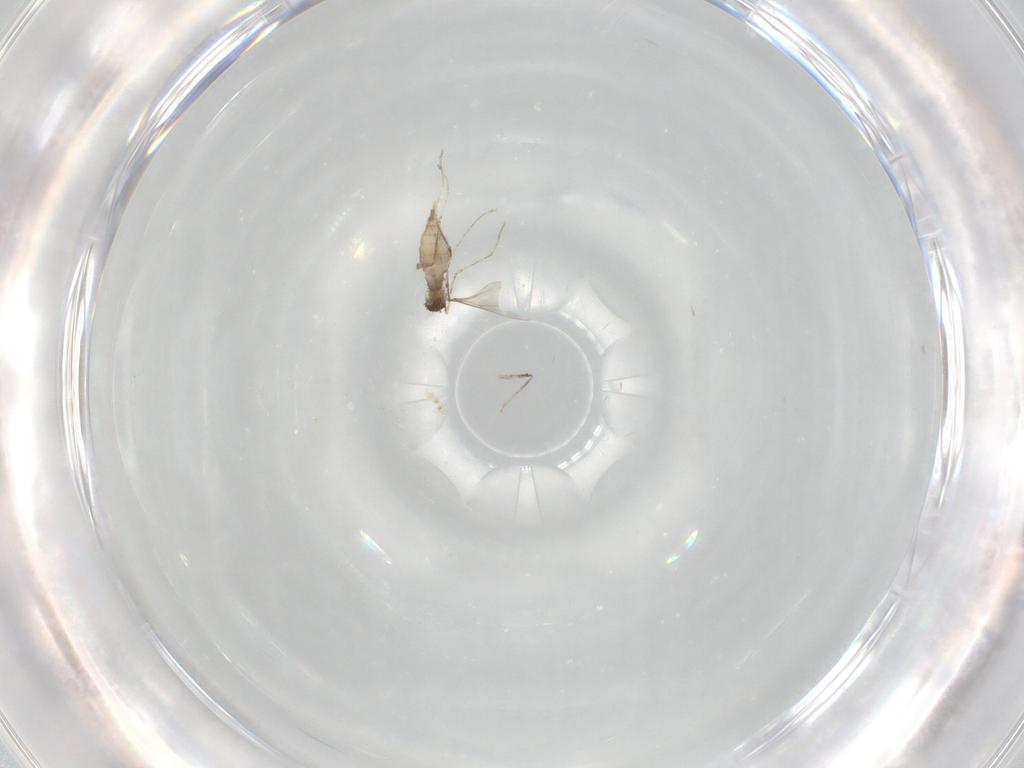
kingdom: Animalia
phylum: Arthropoda
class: Insecta
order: Diptera
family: Cecidomyiidae
